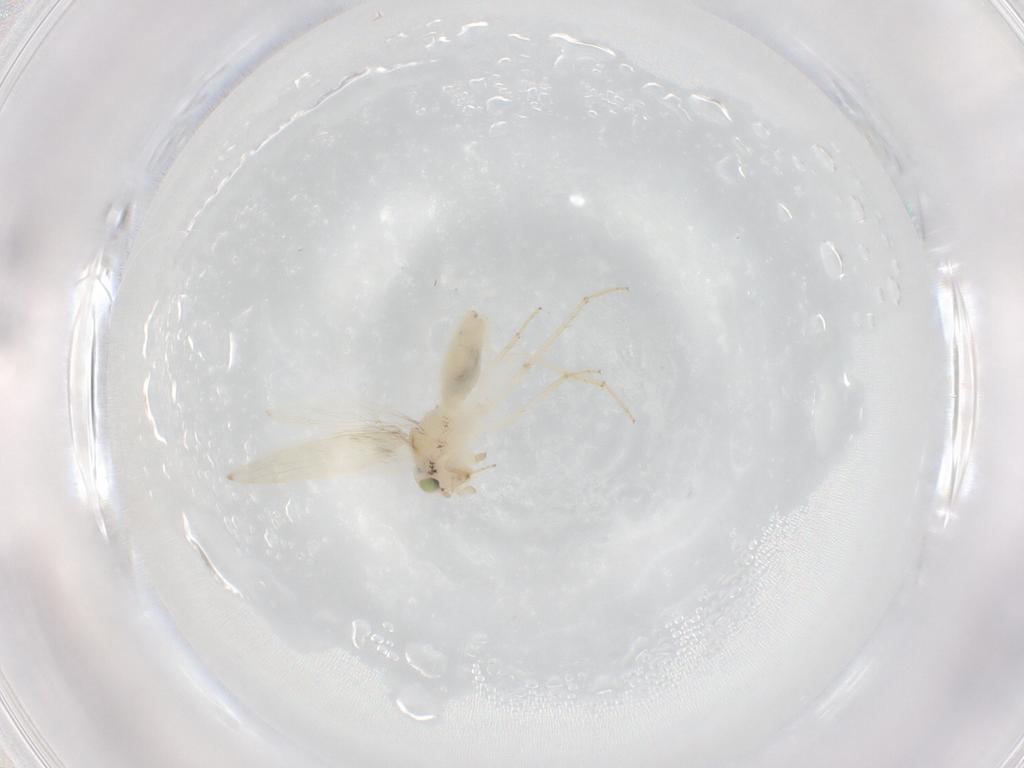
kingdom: Animalia
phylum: Arthropoda
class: Insecta
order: Psocodea
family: Lepidopsocidae
